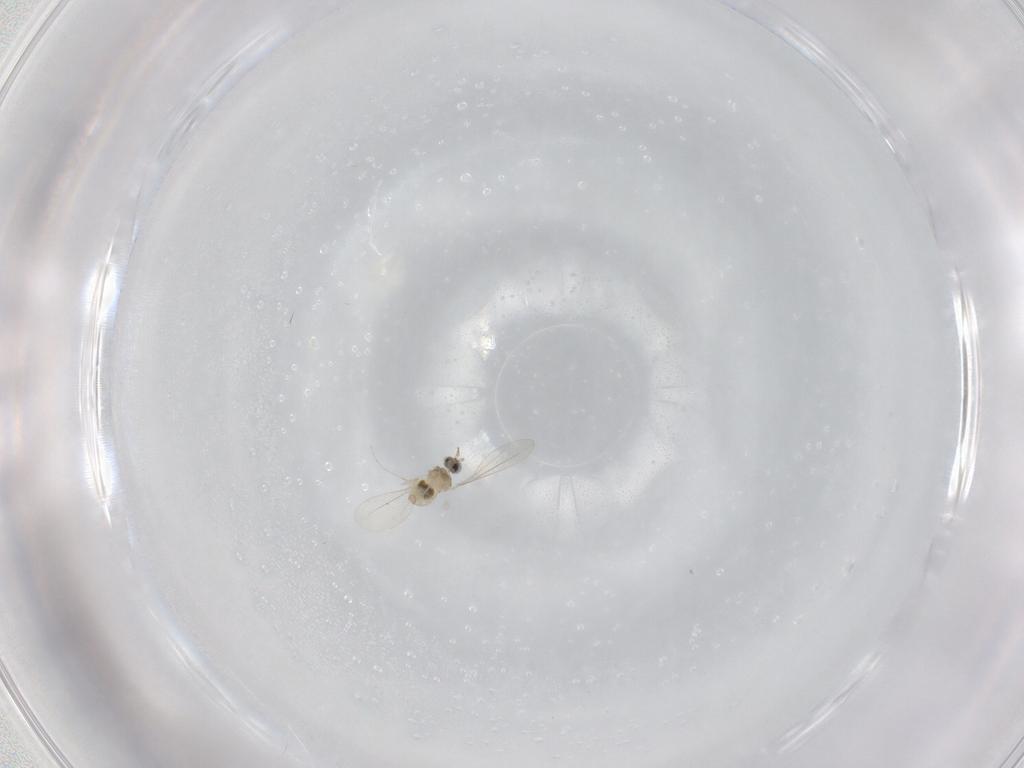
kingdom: Animalia
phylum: Arthropoda
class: Insecta
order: Diptera
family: Cecidomyiidae
